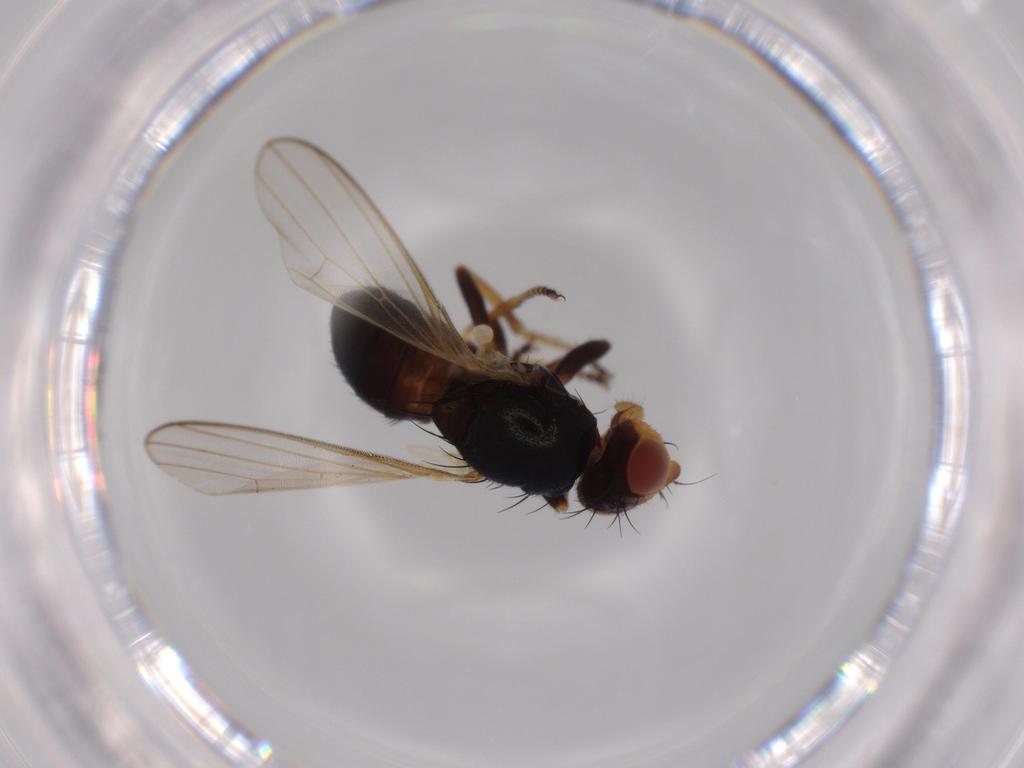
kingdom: Animalia
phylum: Arthropoda
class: Insecta
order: Diptera
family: Piophilidae
